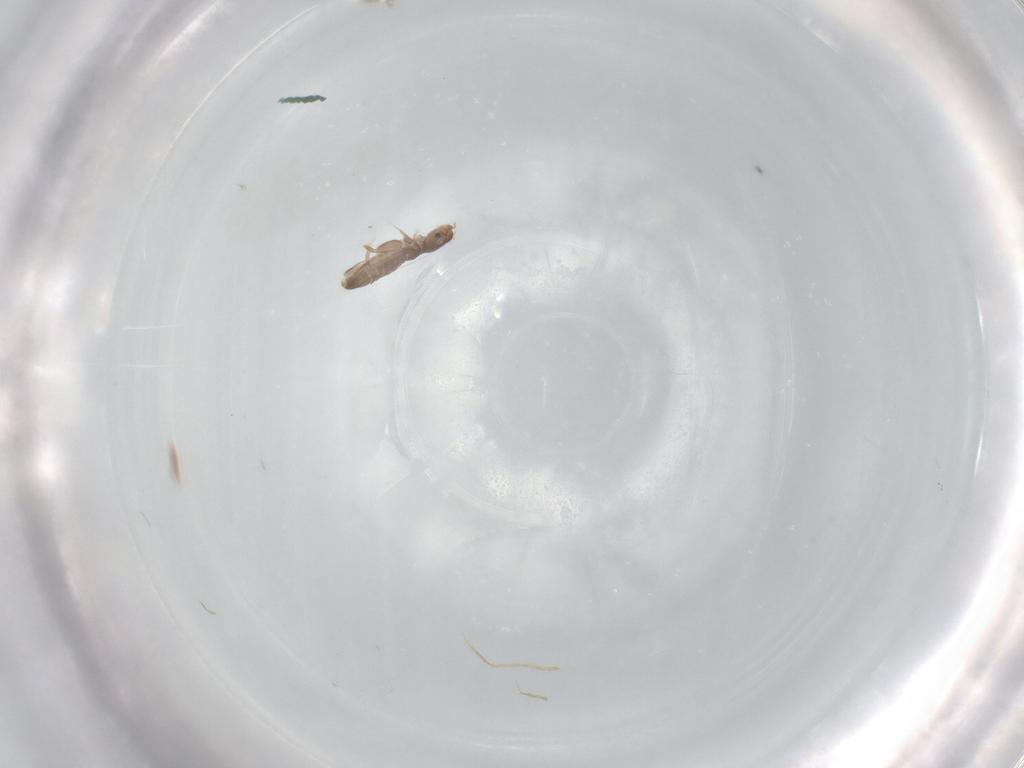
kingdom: Animalia
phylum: Arthropoda
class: Insecta
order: Psocodea
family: Liposcelididae
